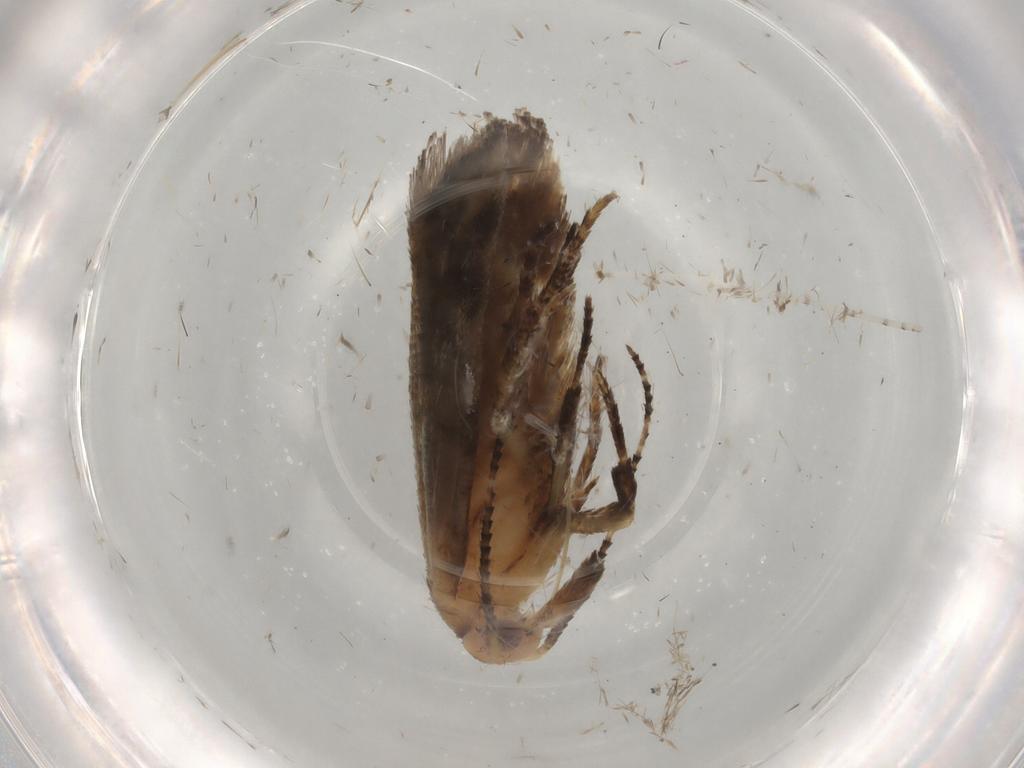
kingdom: Animalia
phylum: Arthropoda
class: Insecta
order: Lepidoptera
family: Ypsolophidae
